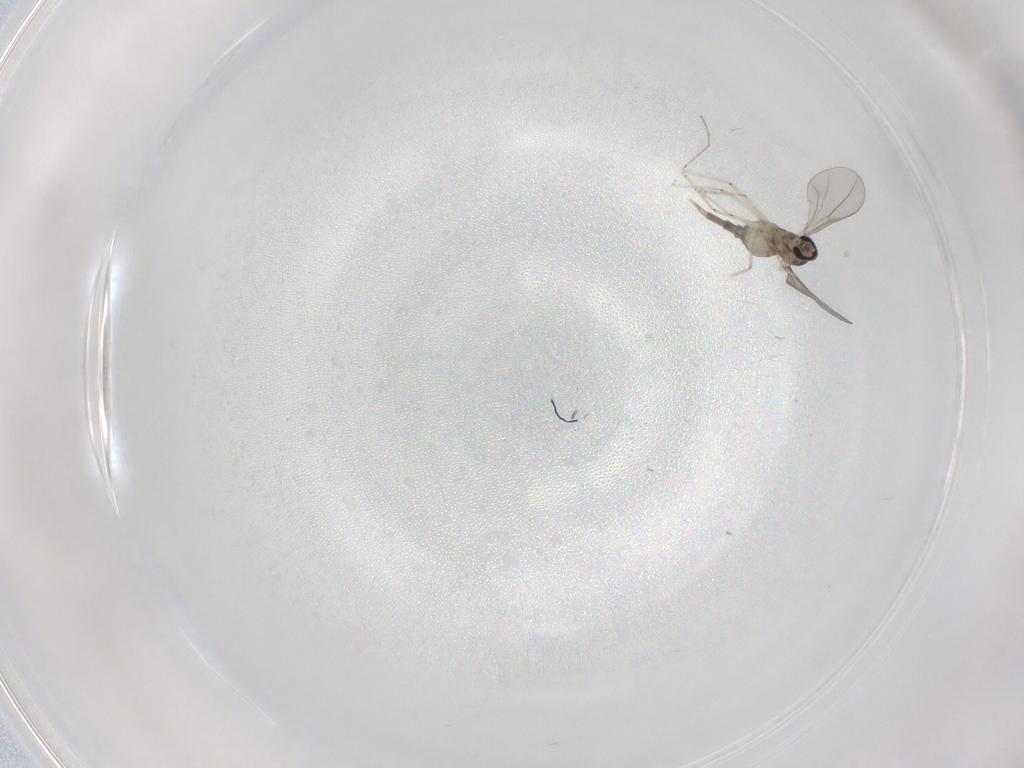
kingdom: Animalia
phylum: Arthropoda
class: Insecta
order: Diptera
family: Cecidomyiidae
